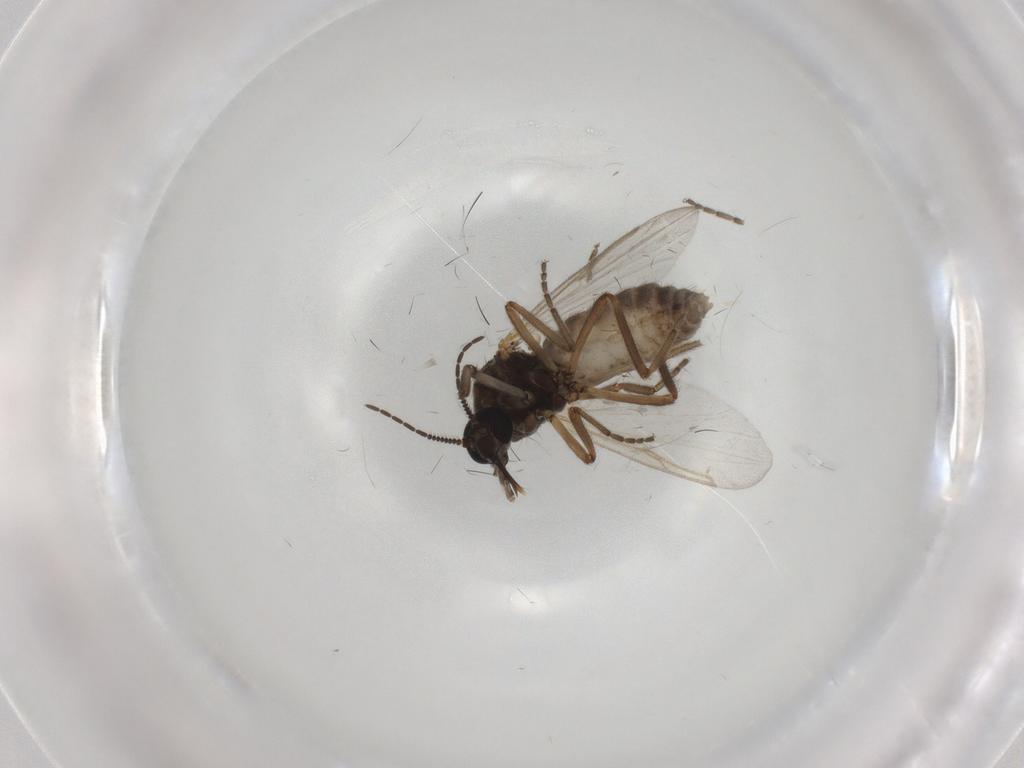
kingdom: Animalia
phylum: Arthropoda
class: Insecta
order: Diptera
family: Ceratopogonidae
